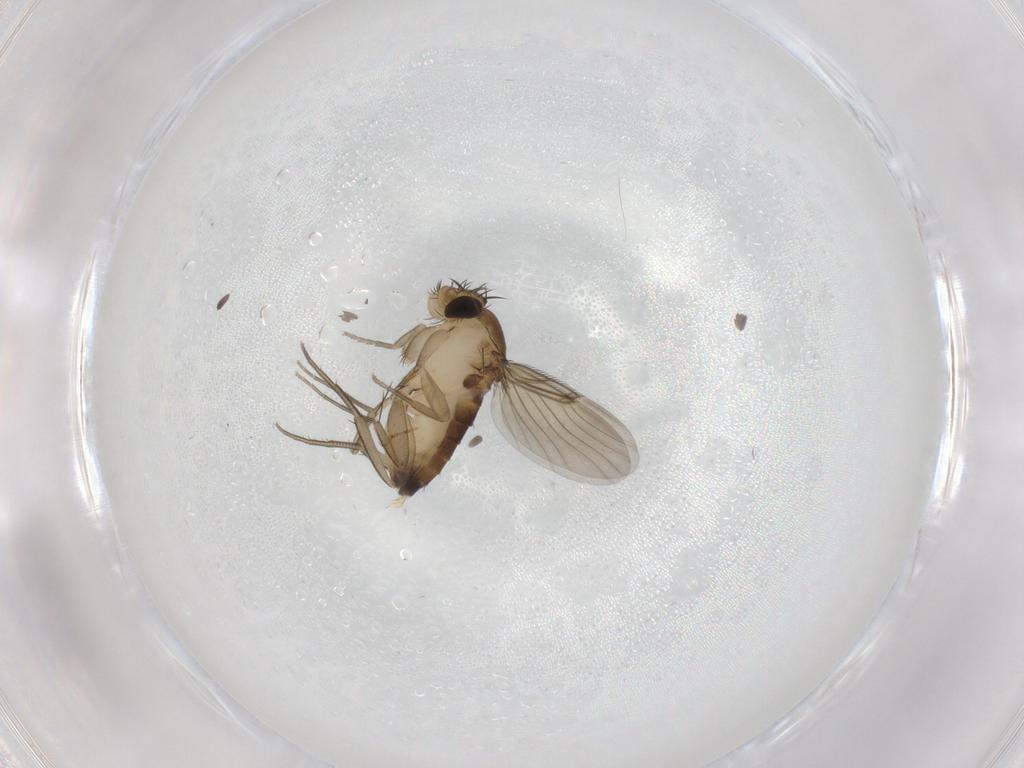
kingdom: Animalia
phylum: Arthropoda
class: Insecta
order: Diptera
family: Phoridae
